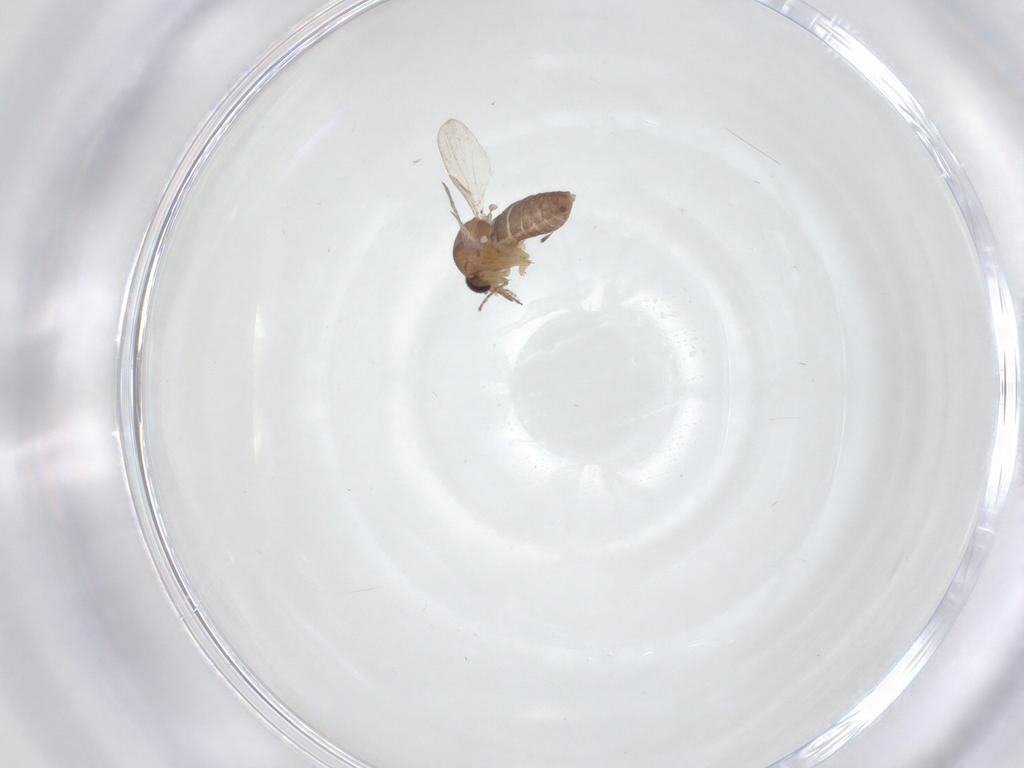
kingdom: Animalia
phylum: Arthropoda
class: Insecta
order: Diptera
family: Ceratopogonidae
